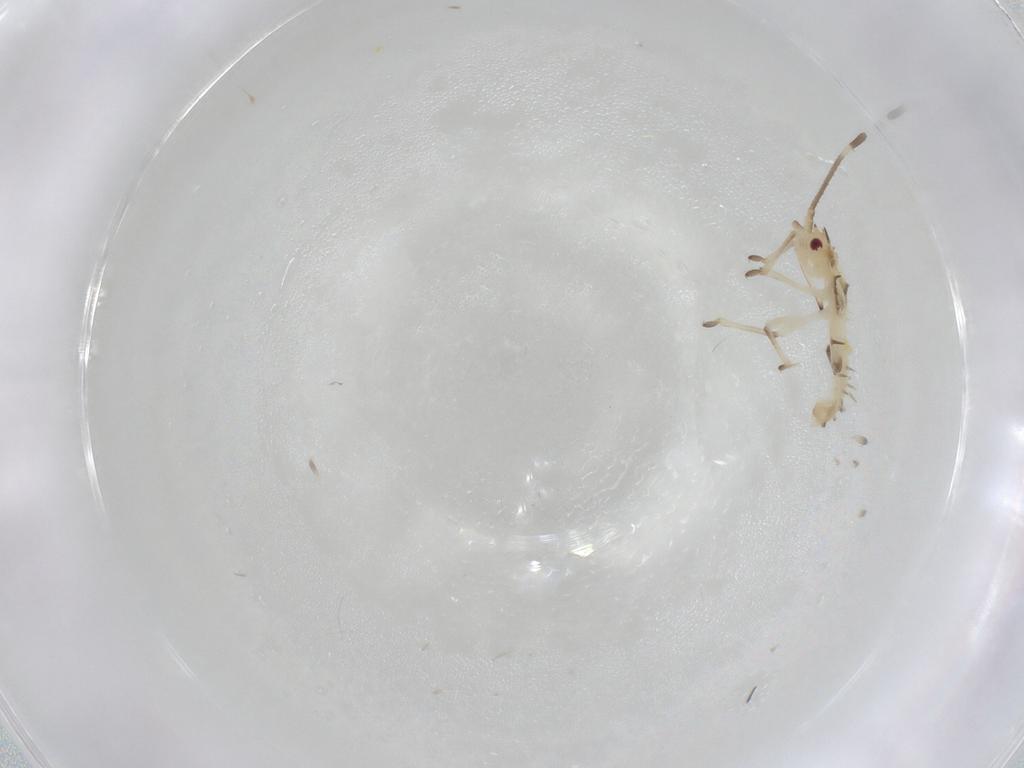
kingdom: Animalia
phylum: Arthropoda
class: Insecta
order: Hemiptera
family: Tingidae
